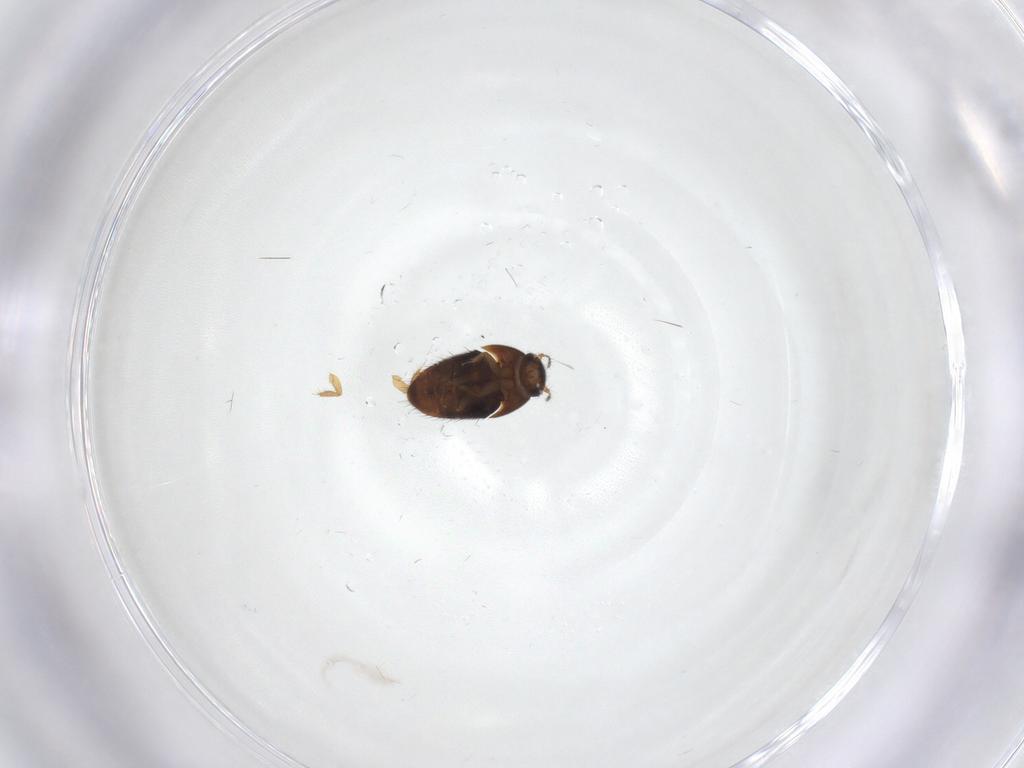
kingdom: Animalia
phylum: Arthropoda
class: Insecta
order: Coleoptera
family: Ptiliidae
